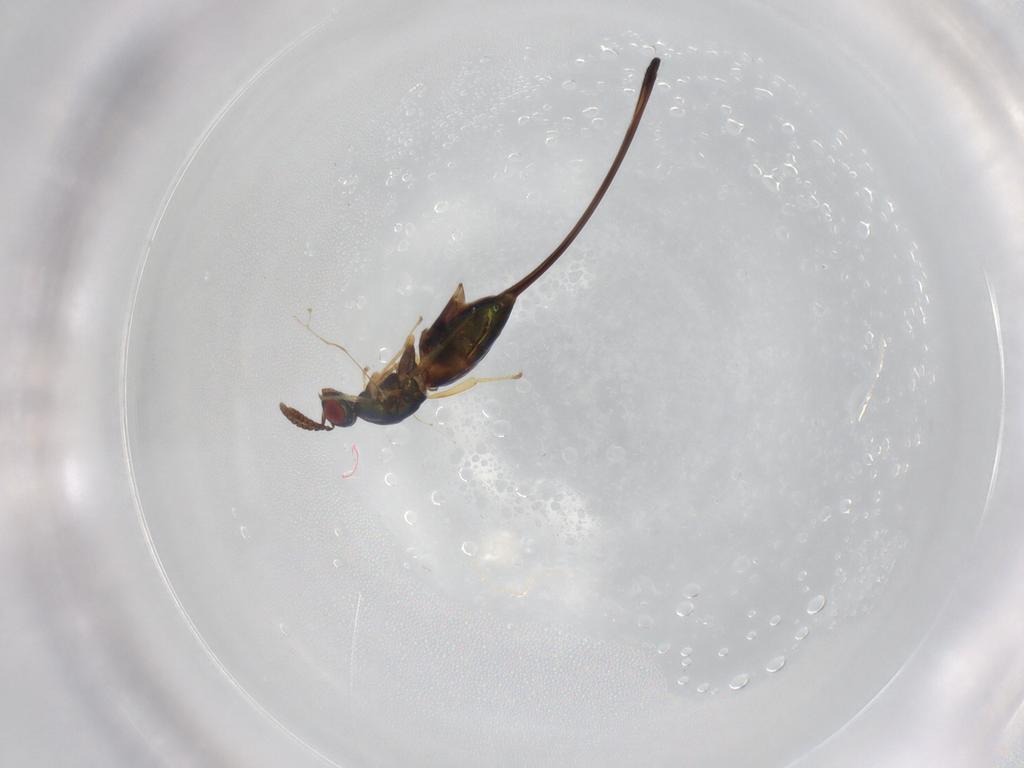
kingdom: Animalia
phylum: Arthropoda
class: Insecta
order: Hymenoptera
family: Pteromalidae
